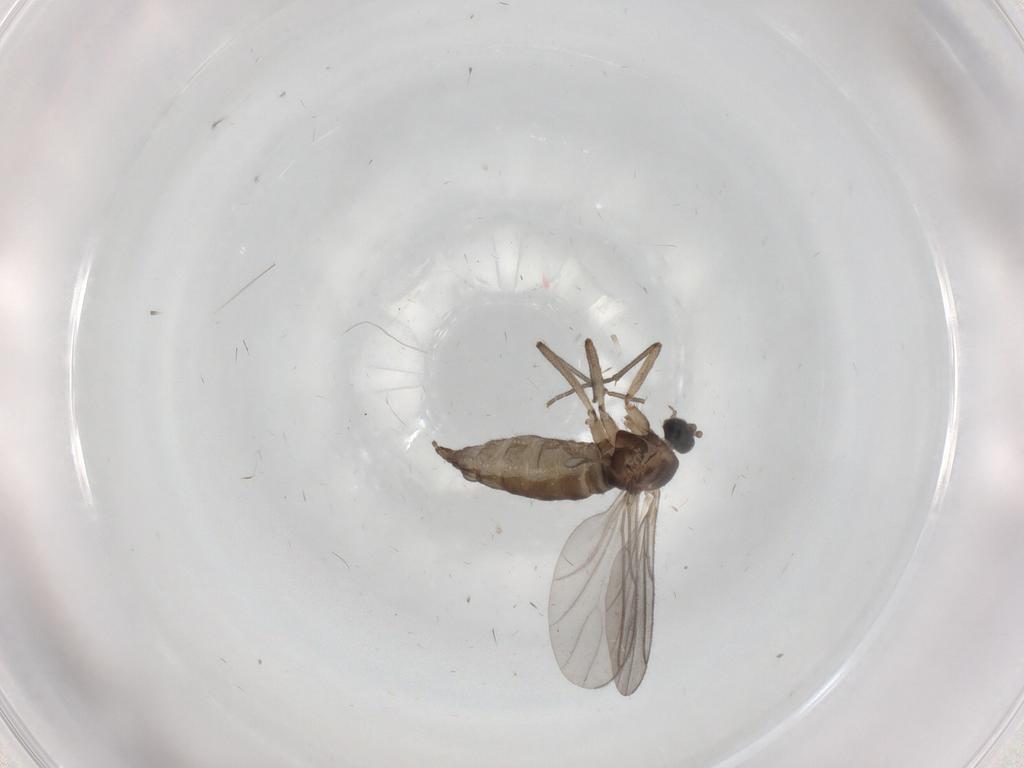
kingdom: Animalia
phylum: Arthropoda
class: Insecta
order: Diptera
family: Sciaridae
